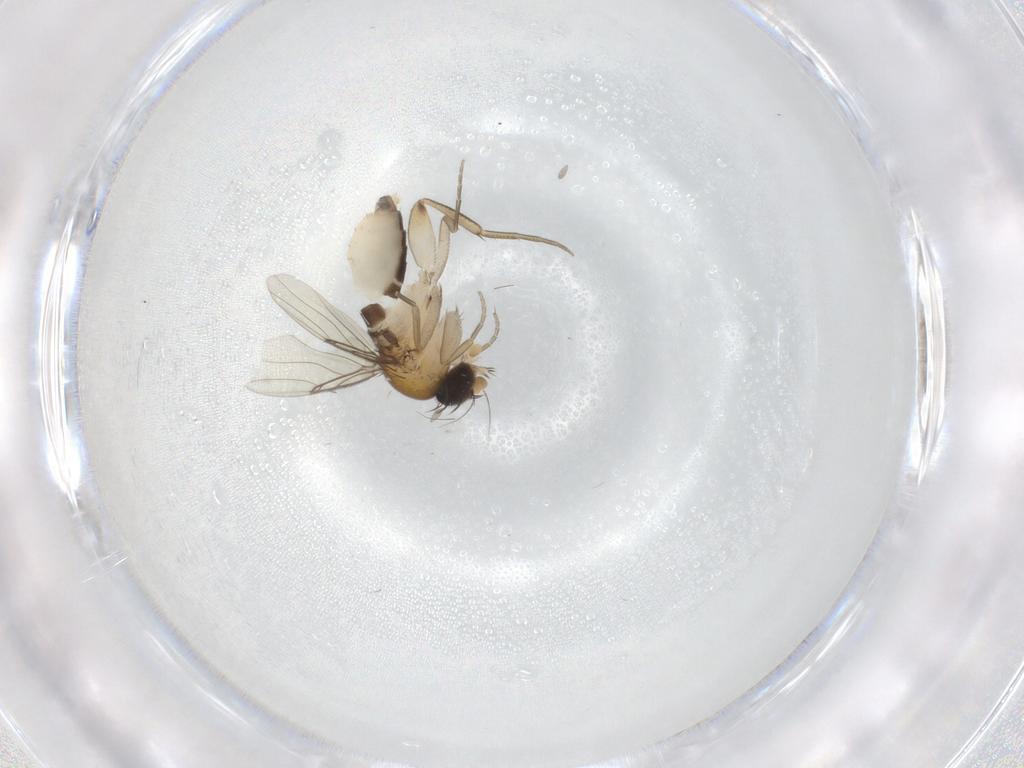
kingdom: Animalia
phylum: Arthropoda
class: Insecta
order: Diptera
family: Phoridae
